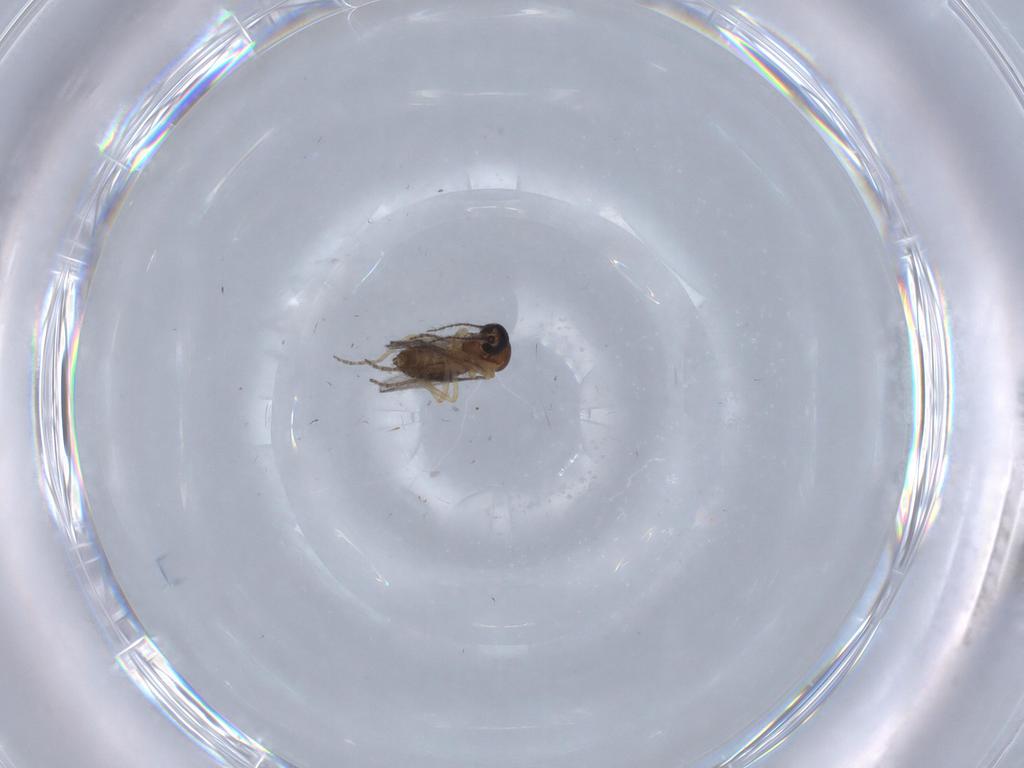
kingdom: Animalia
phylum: Arthropoda
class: Insecta
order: Diptera
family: Ceratopogonidae
